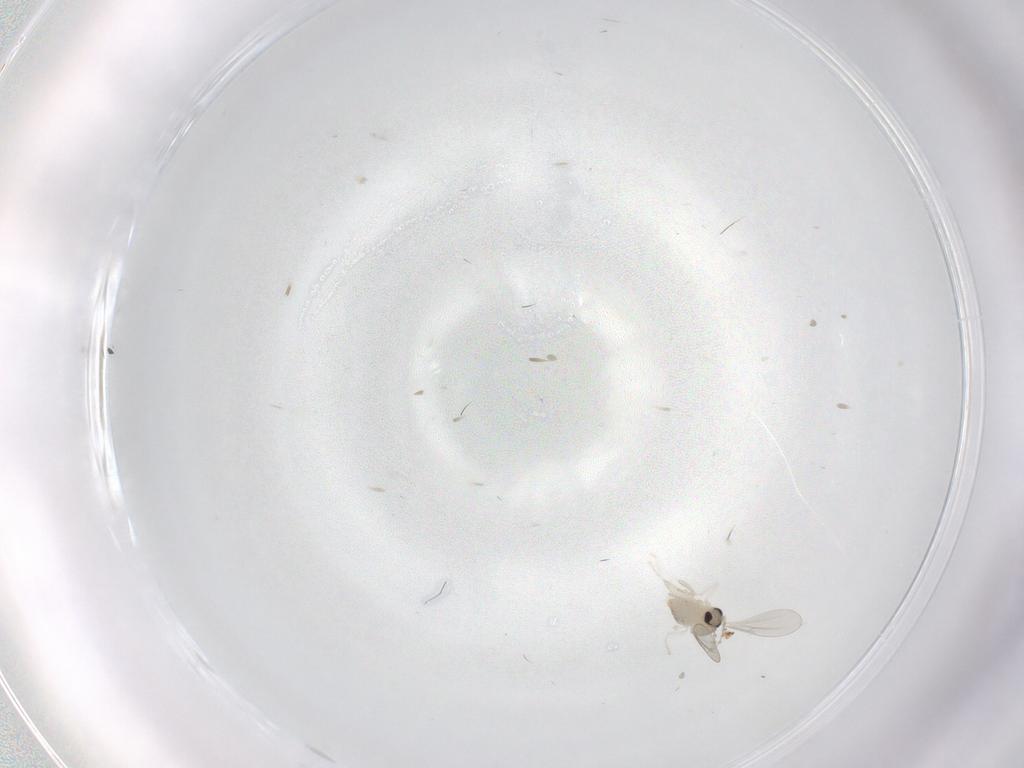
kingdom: Animalia
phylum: Arthropoda
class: Insecta
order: Diptera
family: Cecidomyiidae
